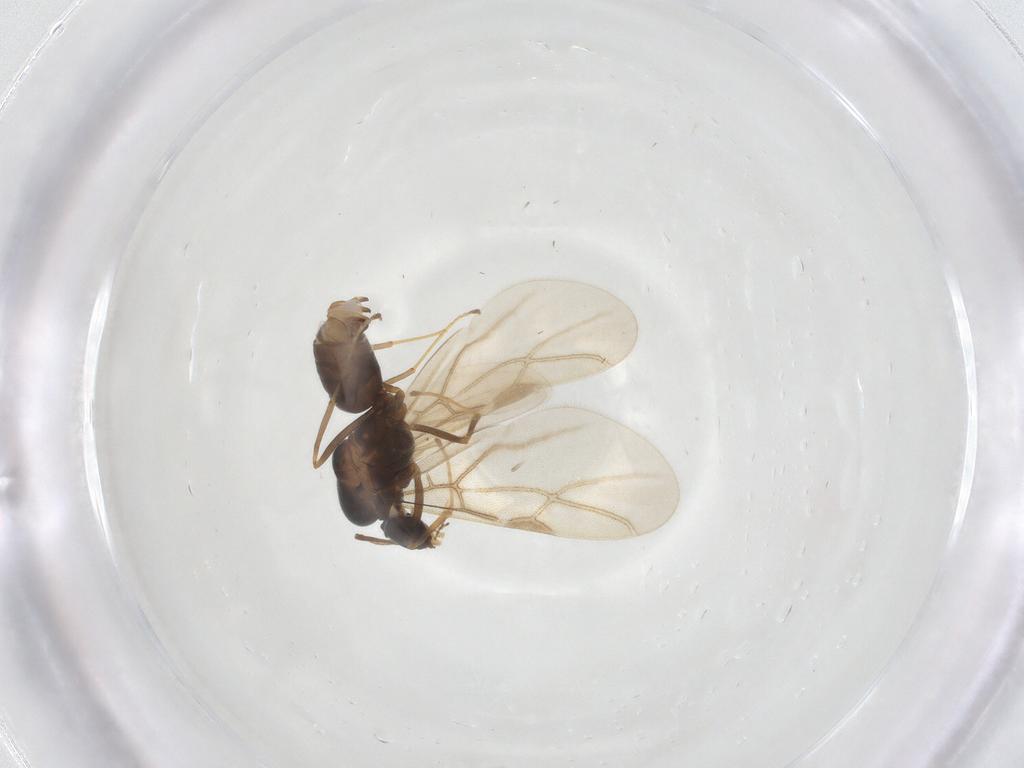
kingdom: Animalia
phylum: Arthropoda
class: Insecta
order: Hymenoptera
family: Formicidae
